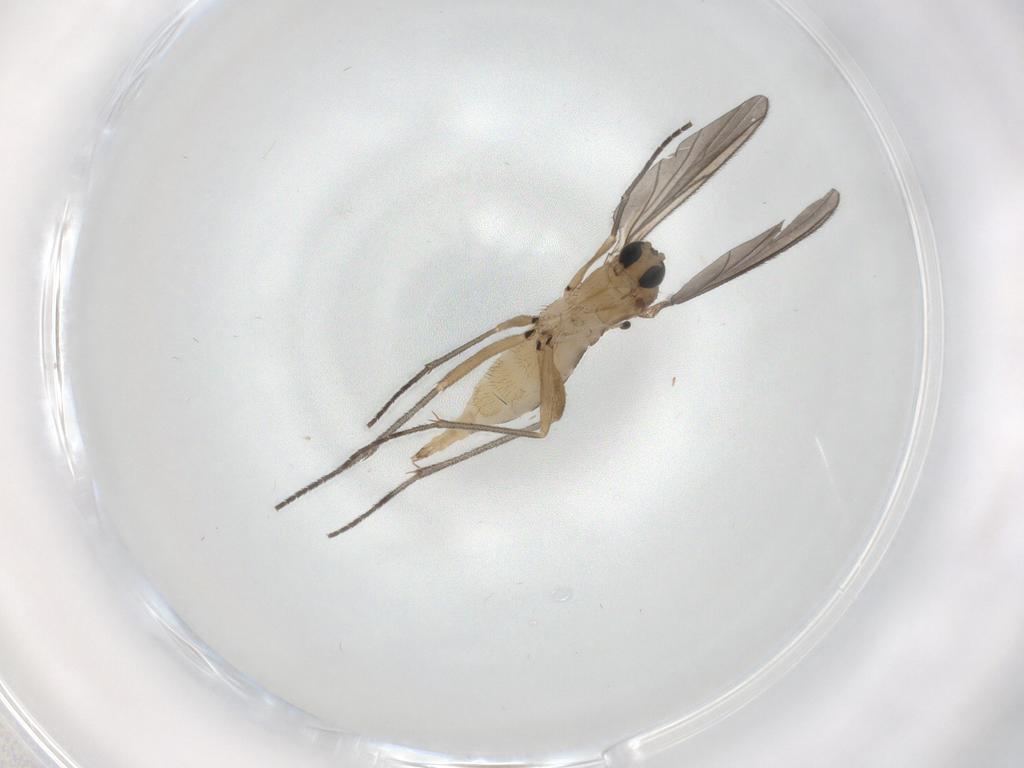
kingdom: Animalia
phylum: Arthropoda
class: Insecta
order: Diptera
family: Sciaridae
